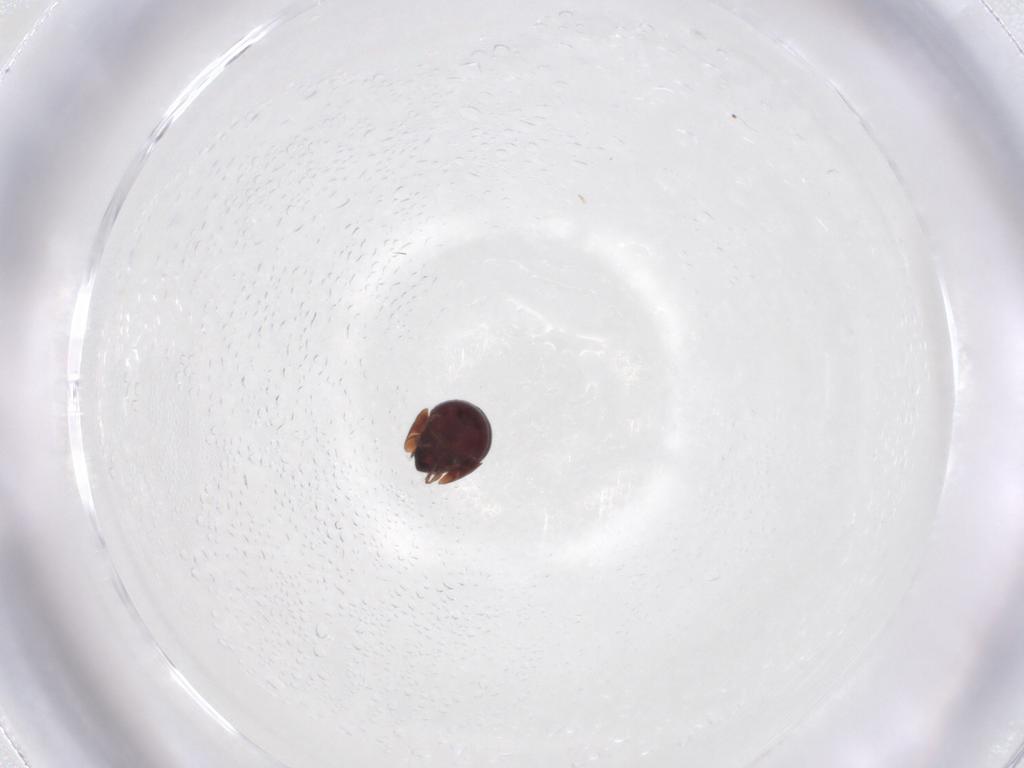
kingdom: Animalia
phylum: Arthropoda
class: Arachnida
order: Sarcoptiformes
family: Galumnidae
